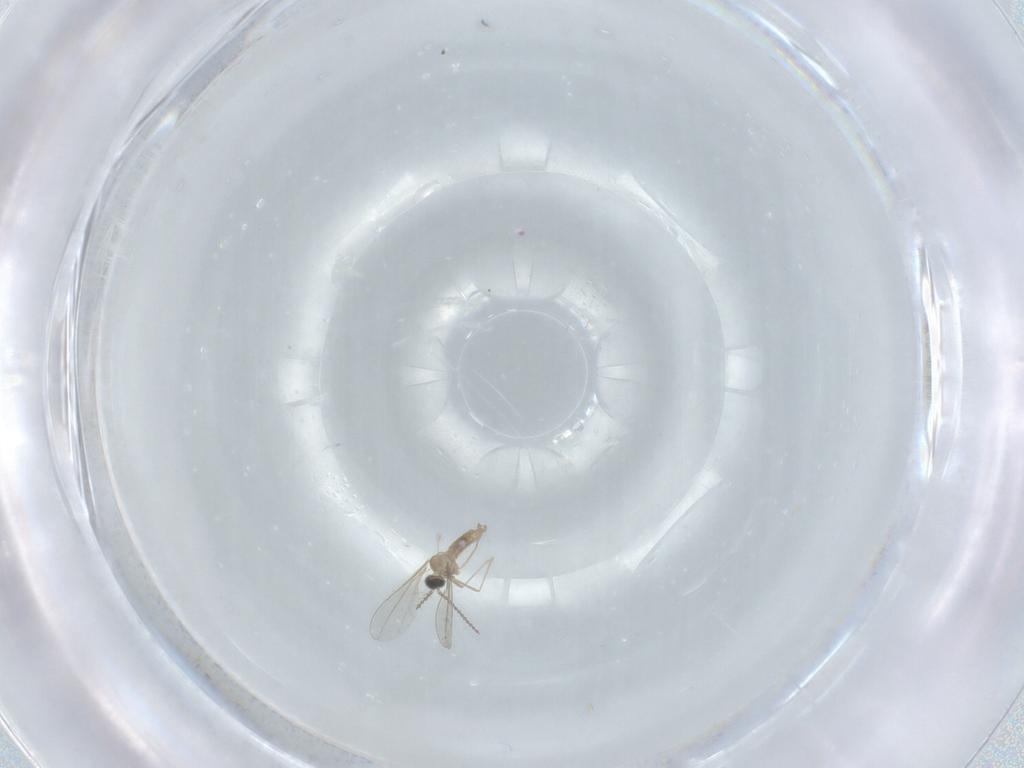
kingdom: Animalia
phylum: Arthropoda
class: Insecta
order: Diptera
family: Cecidomyiidae
